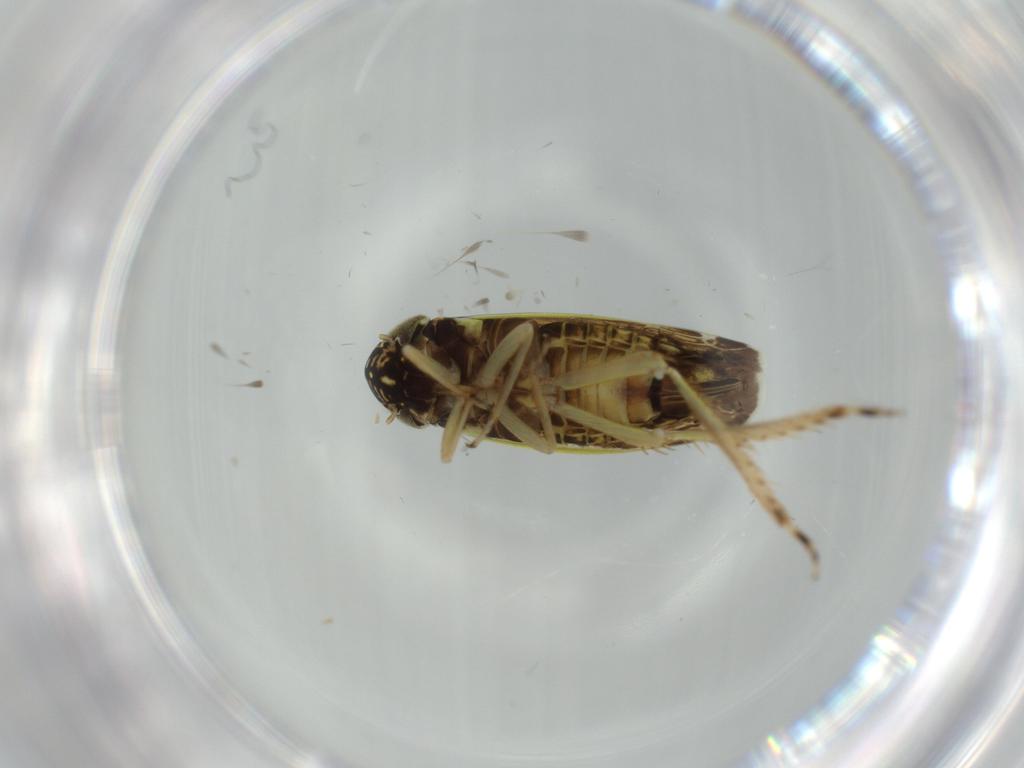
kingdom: Animalia
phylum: Arthropoda
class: Insecta
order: Hemiptera
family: Cicadellidae
